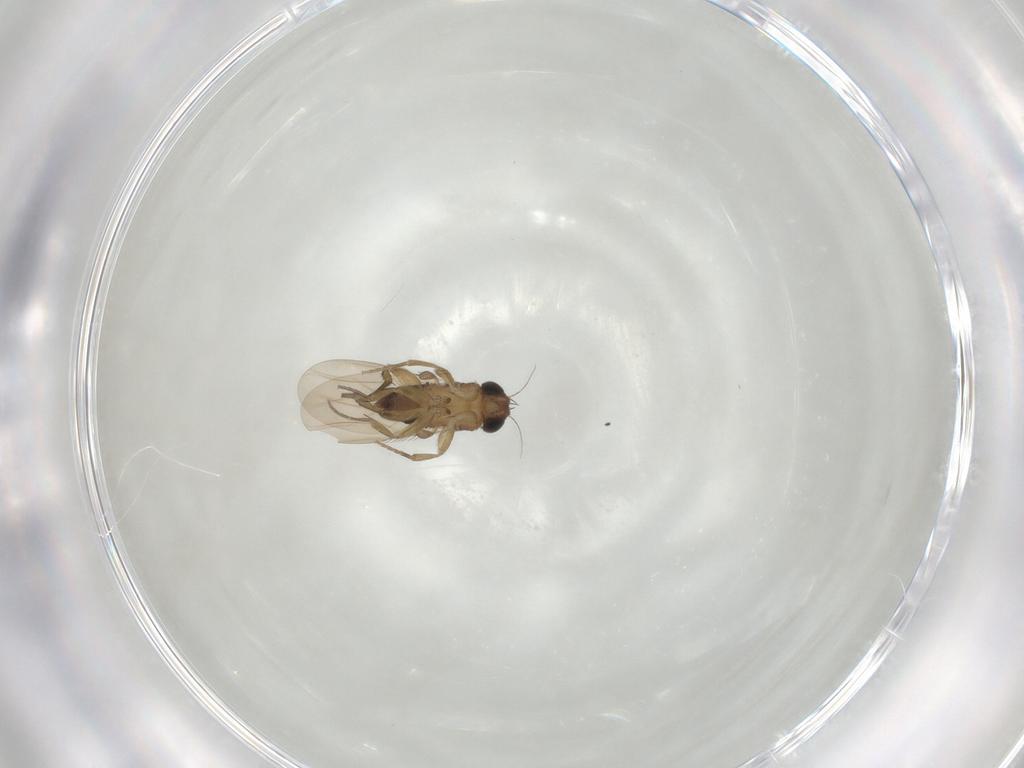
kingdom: Animalia
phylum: Arthropoda
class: Insecta
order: Diptera
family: Phoridae
